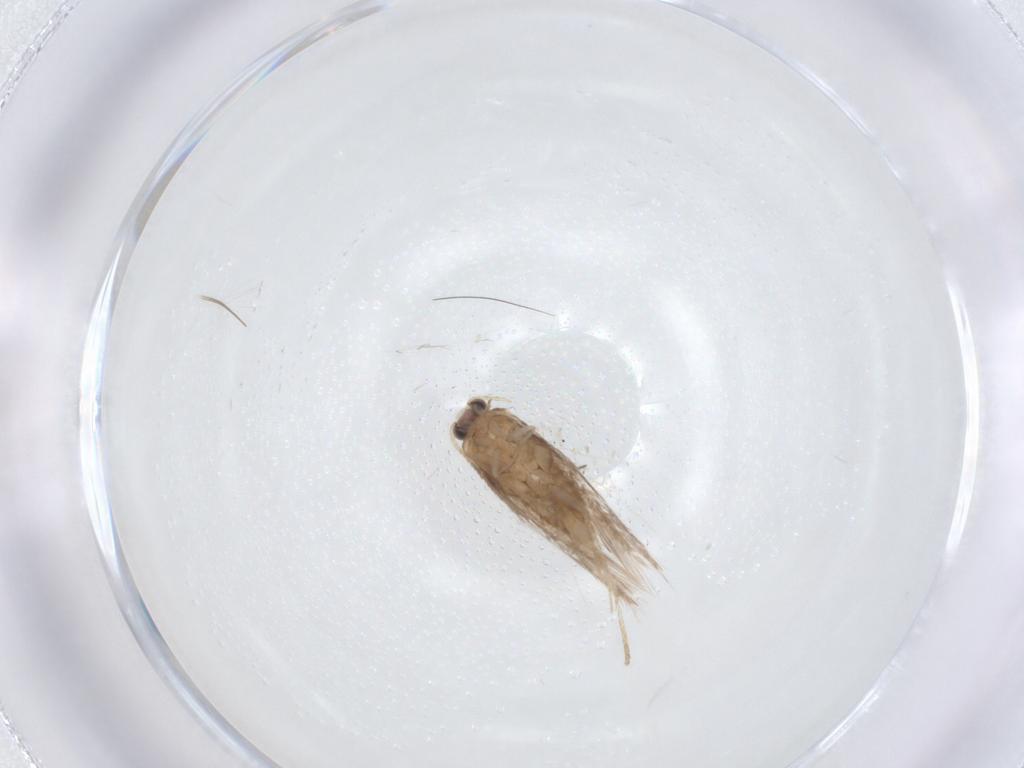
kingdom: Animalia
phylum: Arthropoda
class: Insecta
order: Lepidoptera
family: Nepticulidae
